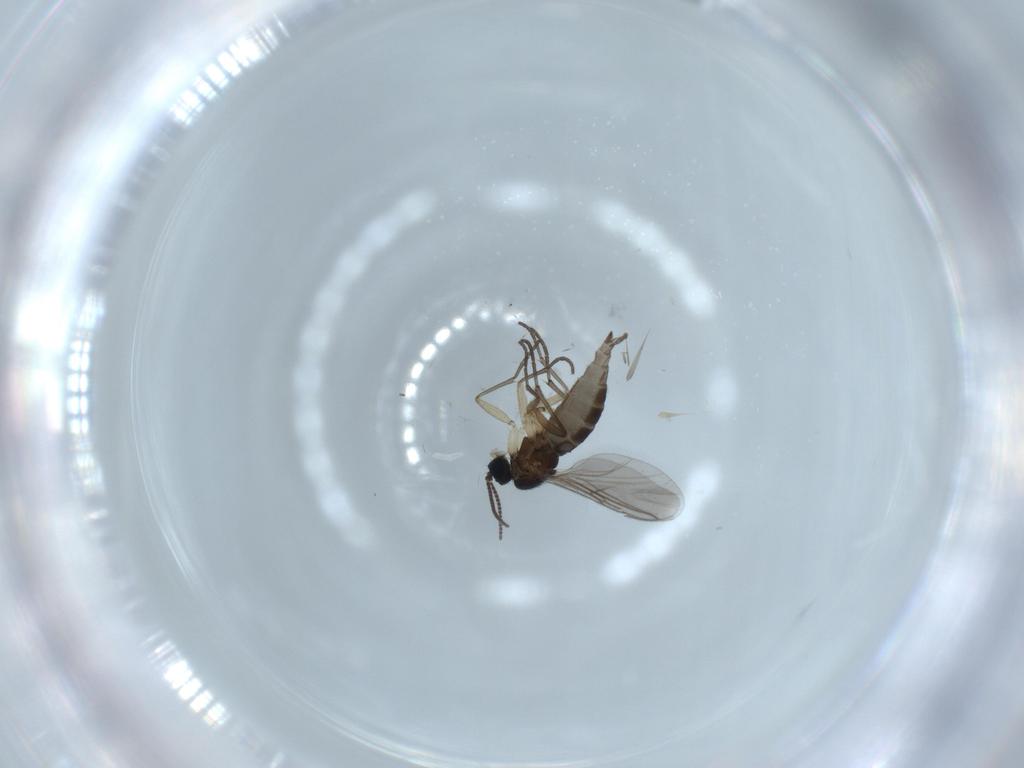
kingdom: Animalia
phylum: Arthropoda
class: Insecta
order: Diptera
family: Sciaridae
